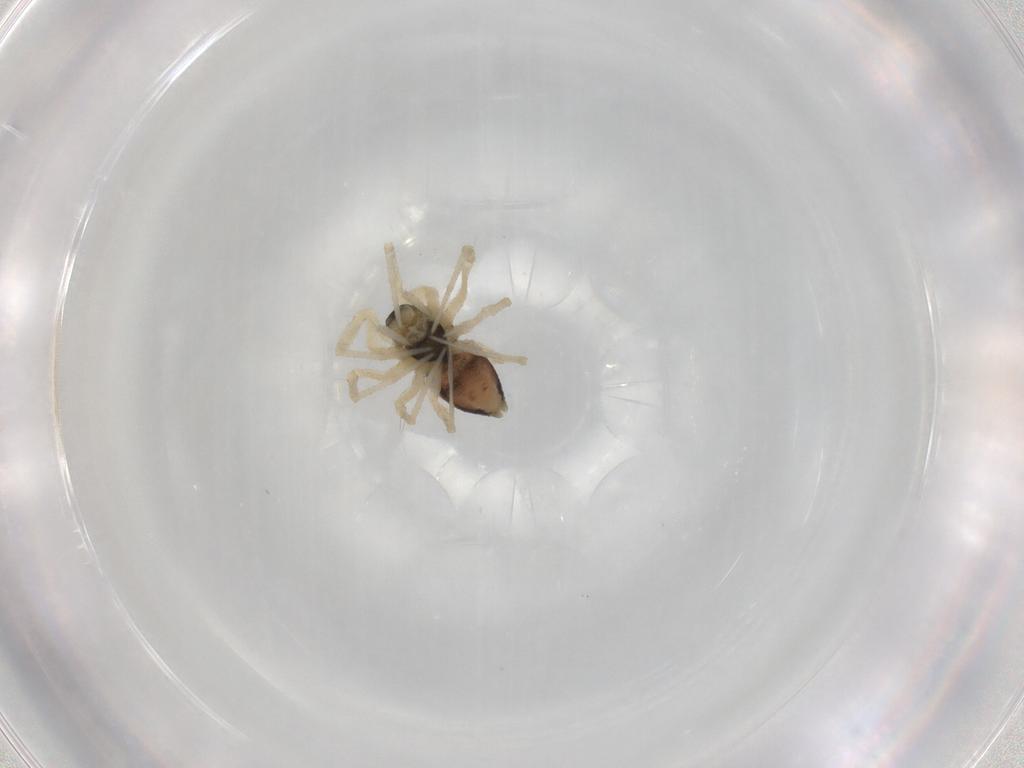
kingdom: Animalia
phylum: Arthropoda
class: Arachnida
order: Araneae
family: Linyphiidae
